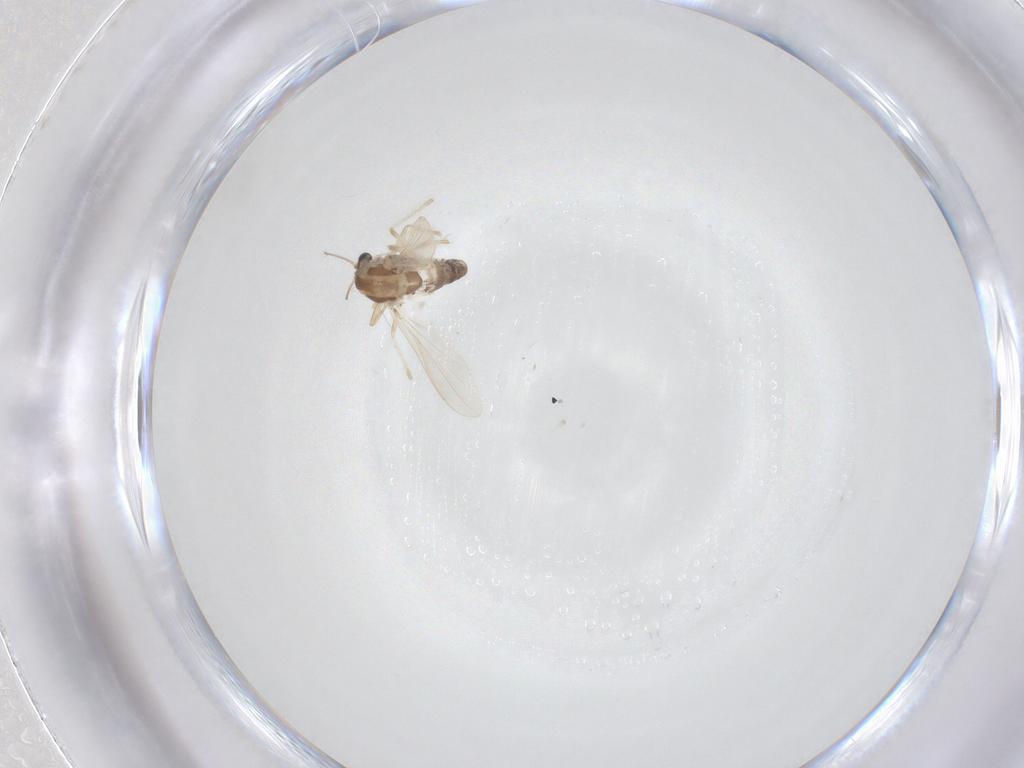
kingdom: Animalia
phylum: Arthropoda
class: Insecta
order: Diptera
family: Chironomidae
